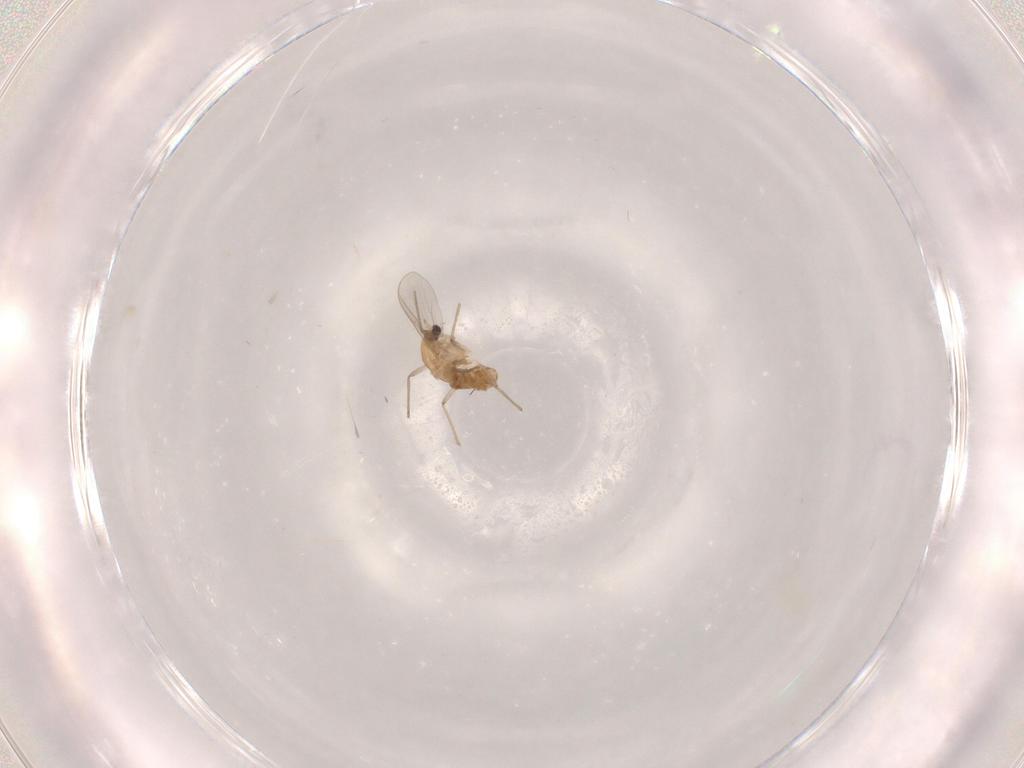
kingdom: Animalia
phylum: Arthropoda
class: Insecta
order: Diptera
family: Chironomidae
